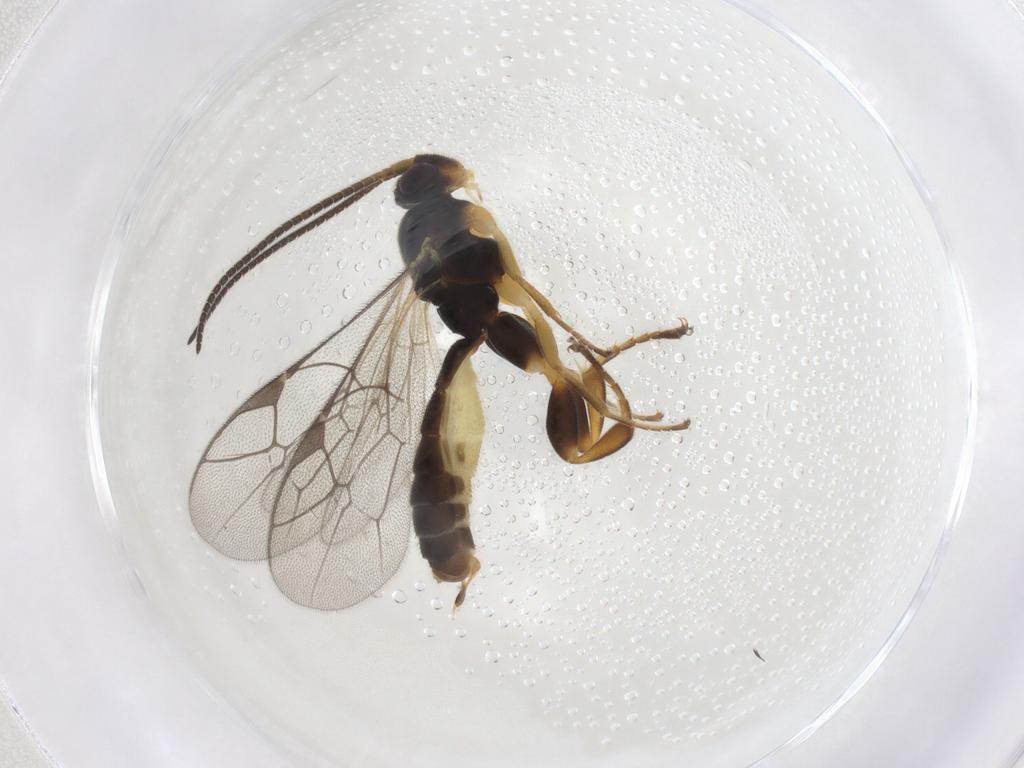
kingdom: Animalia
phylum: Arthropoda
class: Insecta
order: Hymenoptera
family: Ichneumonidae
